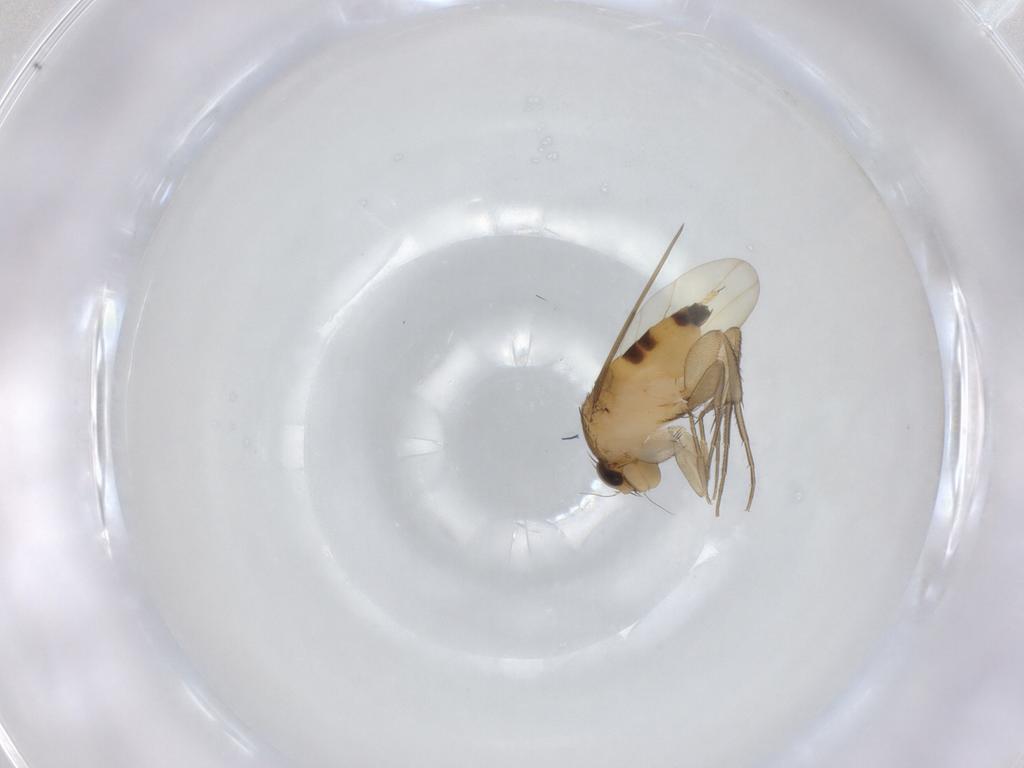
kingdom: Animalia
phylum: Arthropoda
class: Insecta
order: Diptera
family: Phoridae
